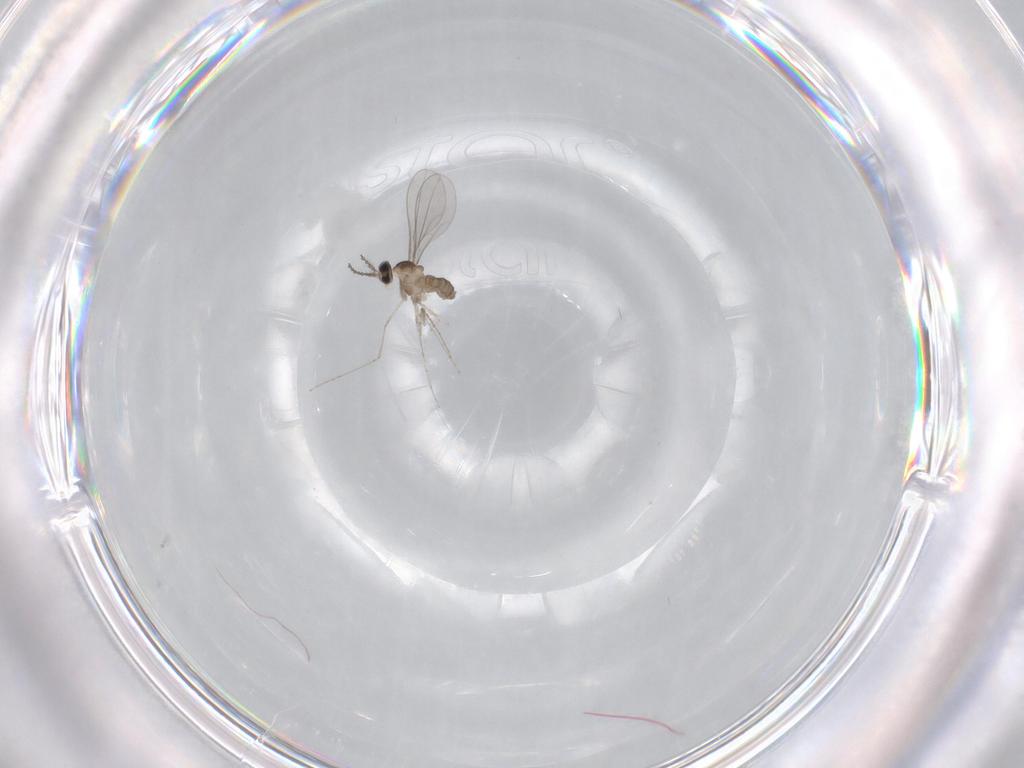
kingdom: Animalia
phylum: Arthropoda
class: Insecta
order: Diptera
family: Cecidomyiidae
